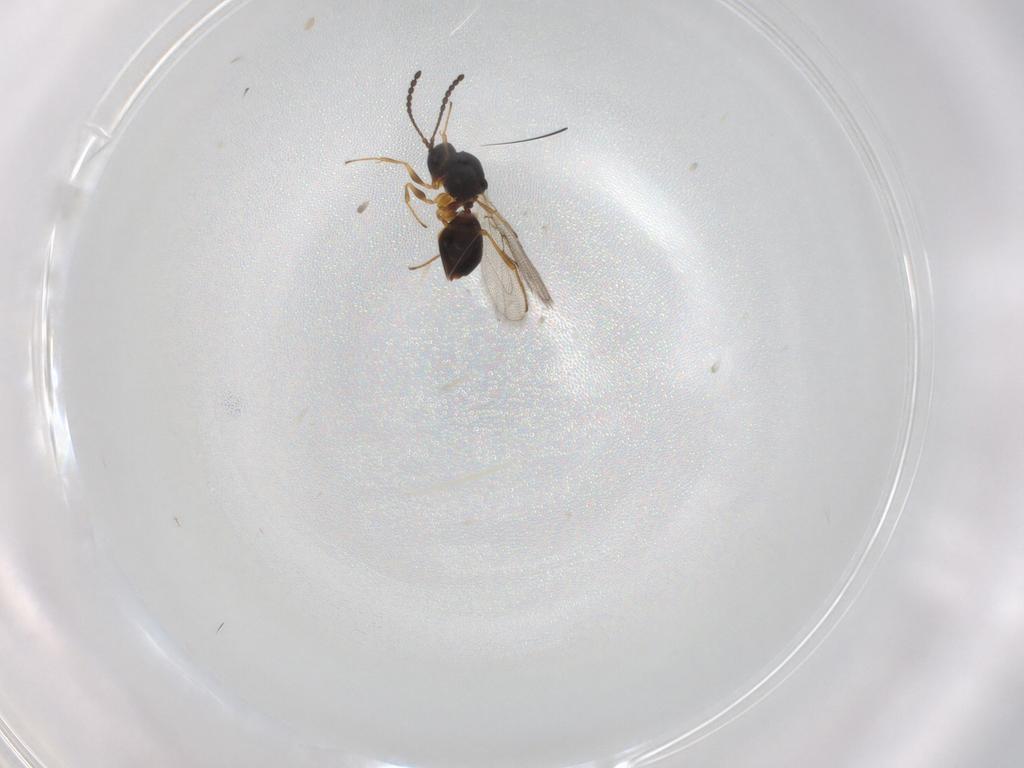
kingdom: Animalia
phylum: Arthropoda
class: Insecta
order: Hymenoptera
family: Figitidae
